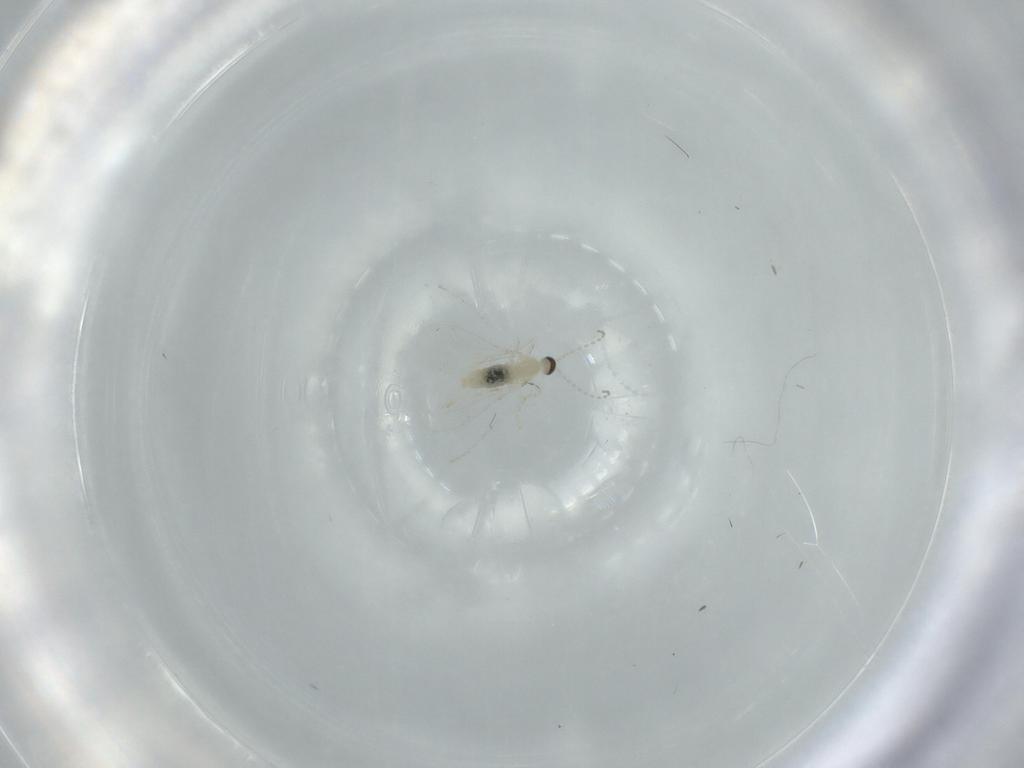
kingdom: Animalia
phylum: Arthropoda
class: Insecta
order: Diptera
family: Cecidomyiidae
